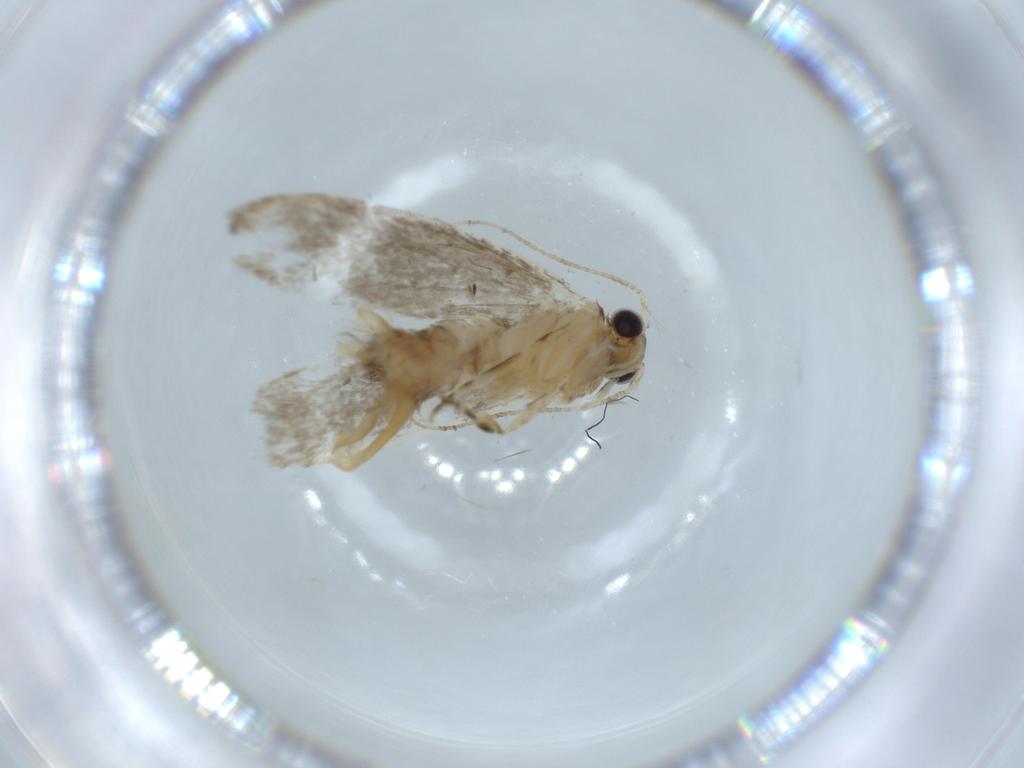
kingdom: Animalia
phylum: Arthropoda
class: Insecta
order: Lepidoptera
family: Tineidae
